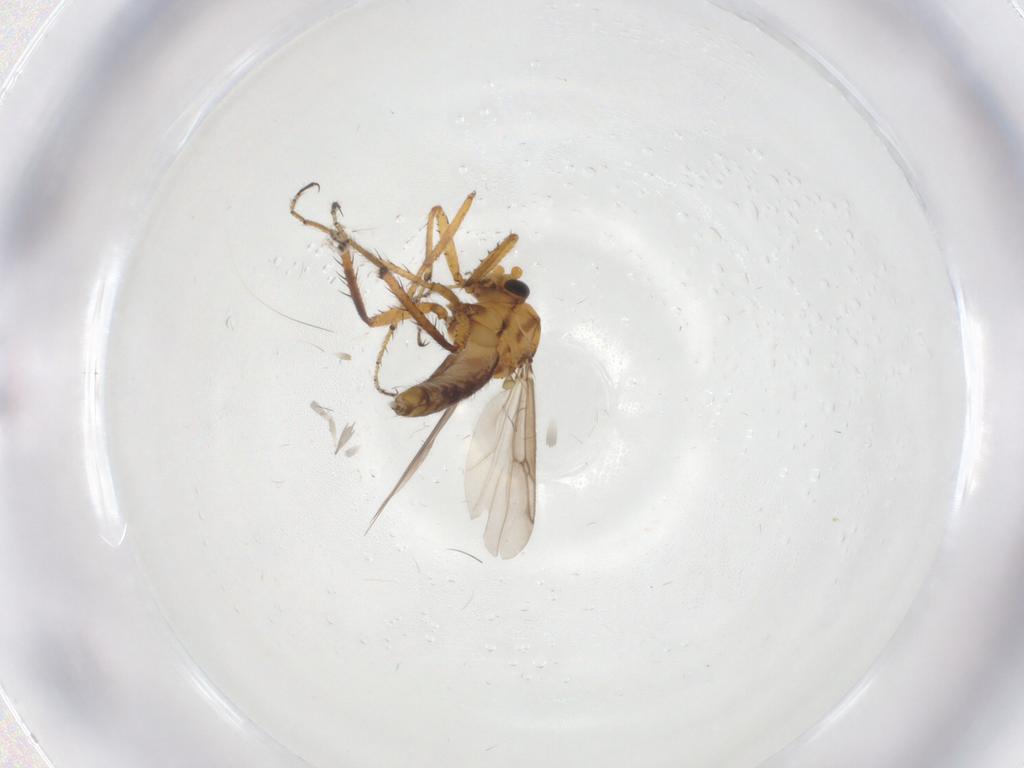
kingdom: Animalia
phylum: Arthropoda
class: Insecta
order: Diptera
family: Ceratopogonidae
